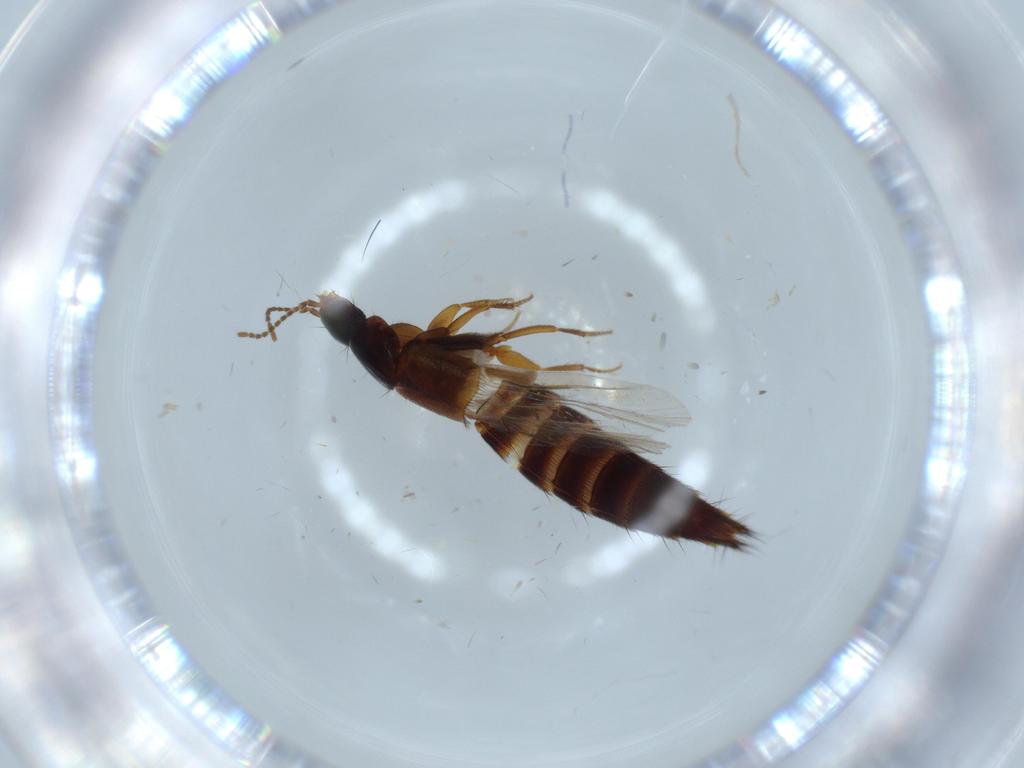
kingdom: Animalia
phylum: Arthropoda
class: Insecta
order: Coleoptera
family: Staphylinidae
